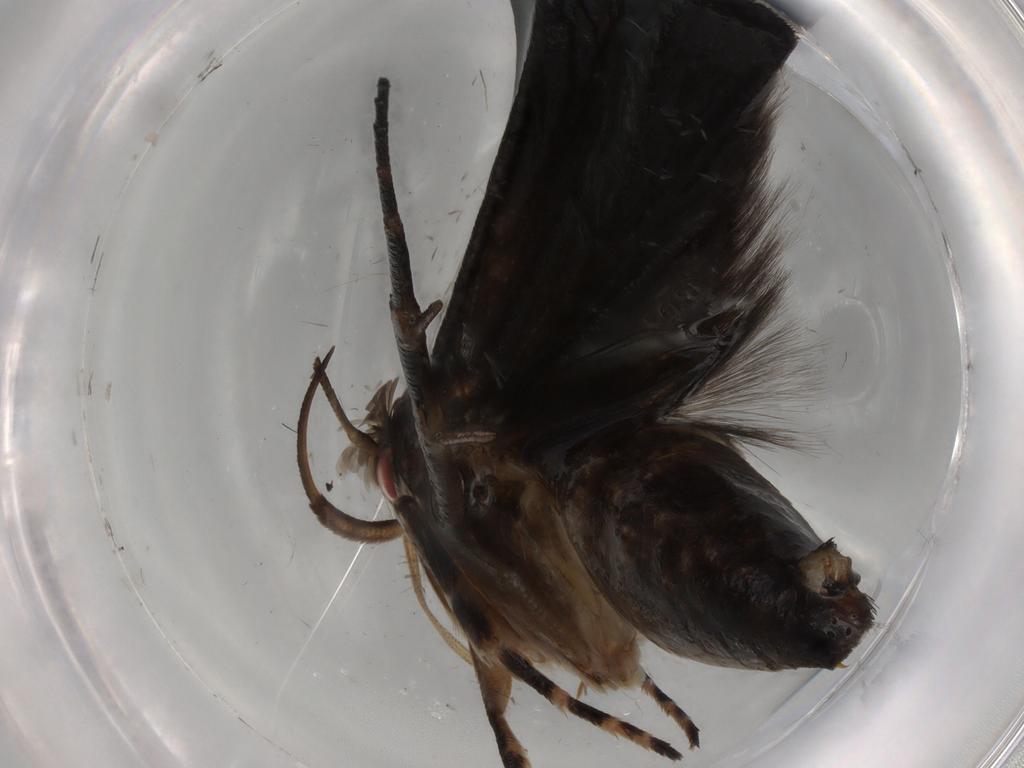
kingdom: Animalia
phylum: Arthropoda
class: Insecta
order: Lepidoptera
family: Gelechiidae
